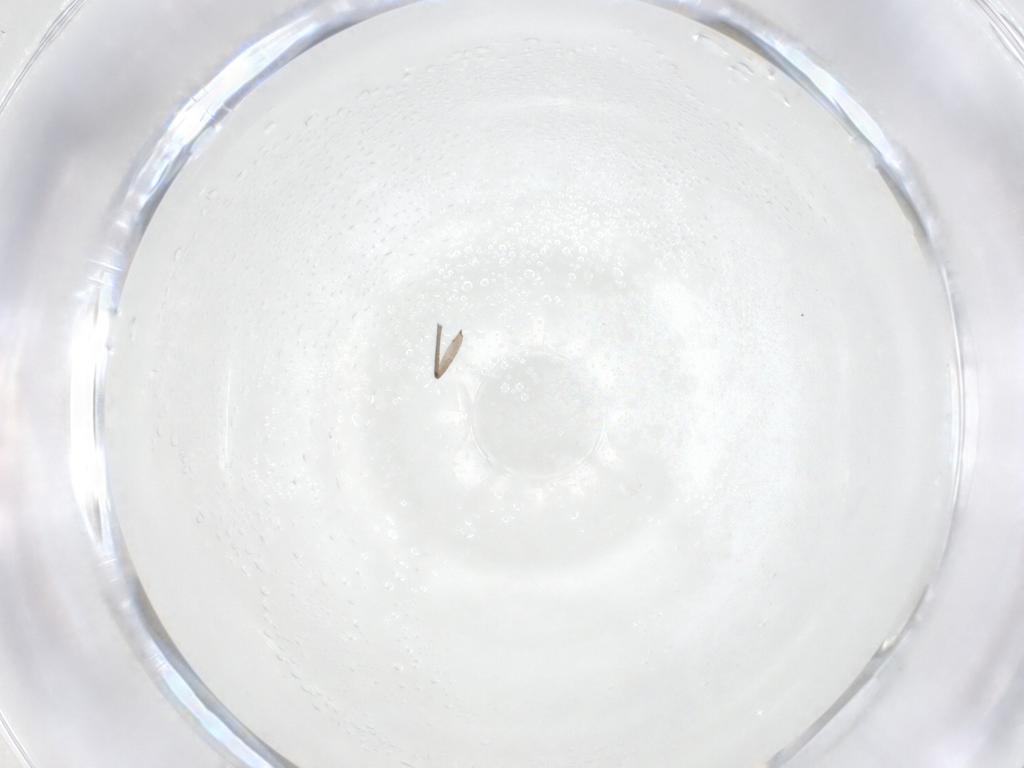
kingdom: Animalia
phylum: Arthropoda
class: Insecta
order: Diptera
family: Sciaridae
